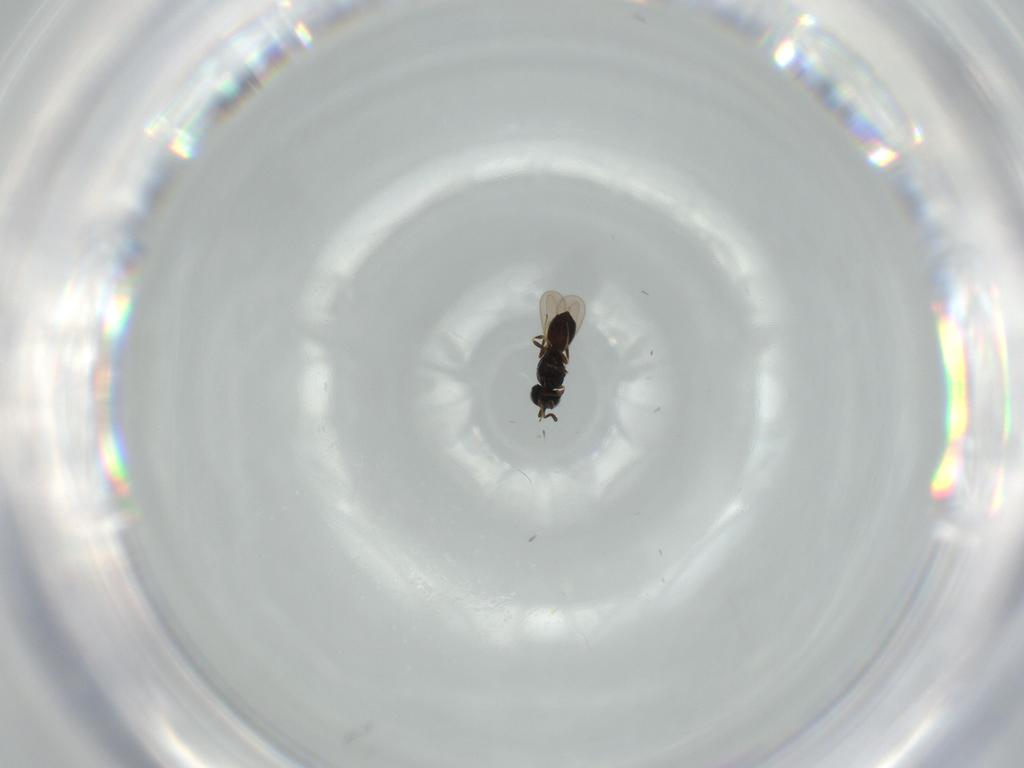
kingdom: Animalia
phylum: Arthropoda
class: Insecta
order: Hymenoptera
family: Scelionidae
